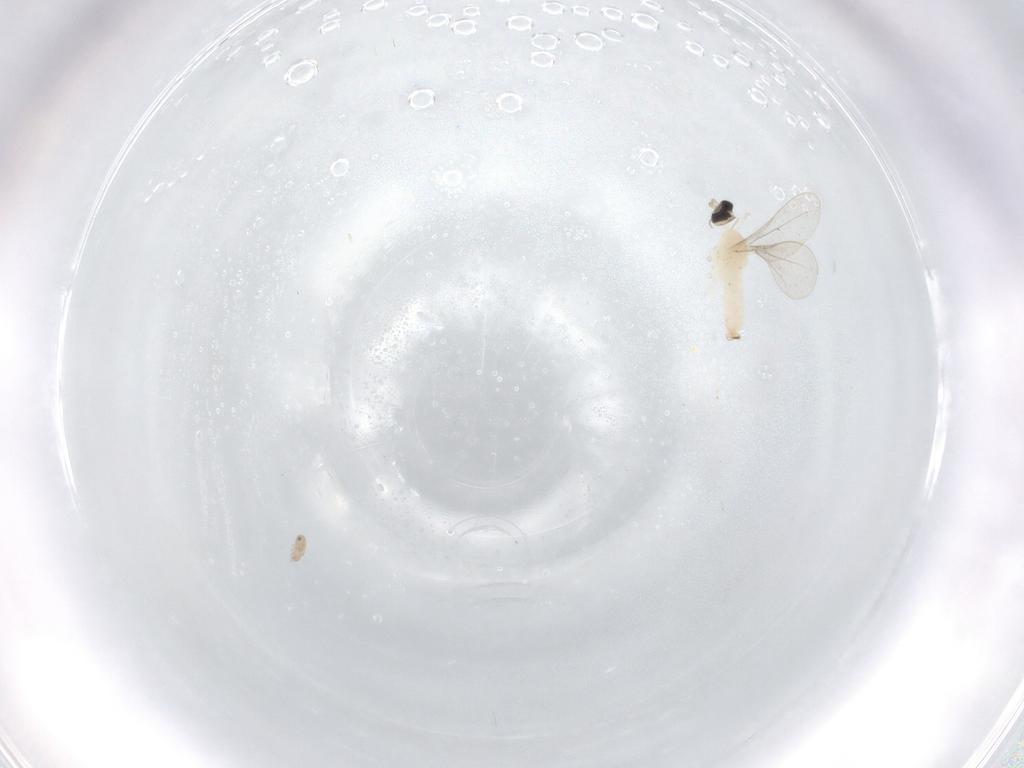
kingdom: Animalia
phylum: Arthropoda
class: Insecta
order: Diptera
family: Cecidomyiidae
